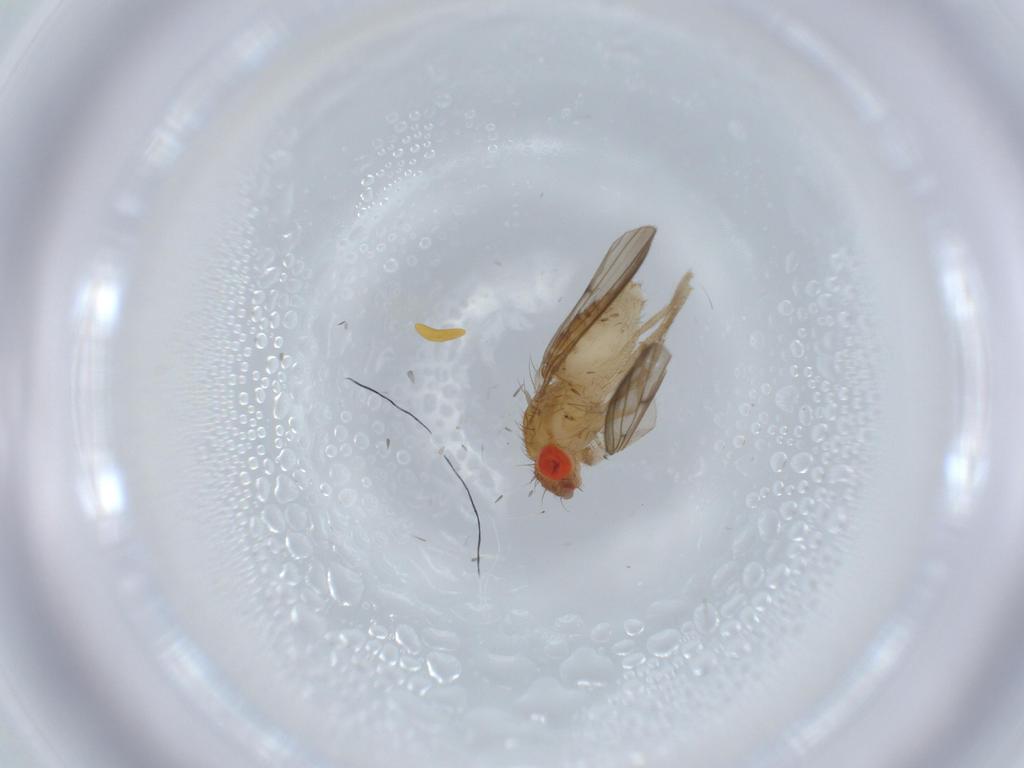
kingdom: Animalia
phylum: Arthropoda
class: Insecta
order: Diptera
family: Drosophilidae
